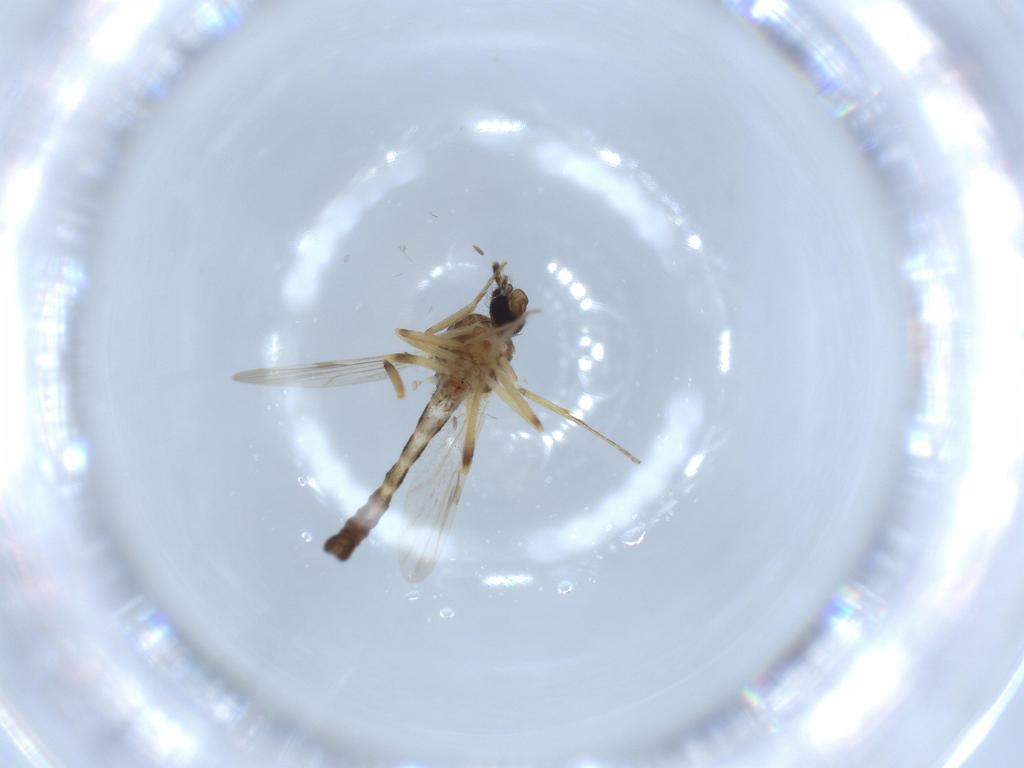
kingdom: Animalia
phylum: Arthropoda
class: Insecta
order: Diptera
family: Ceratopogonidae
